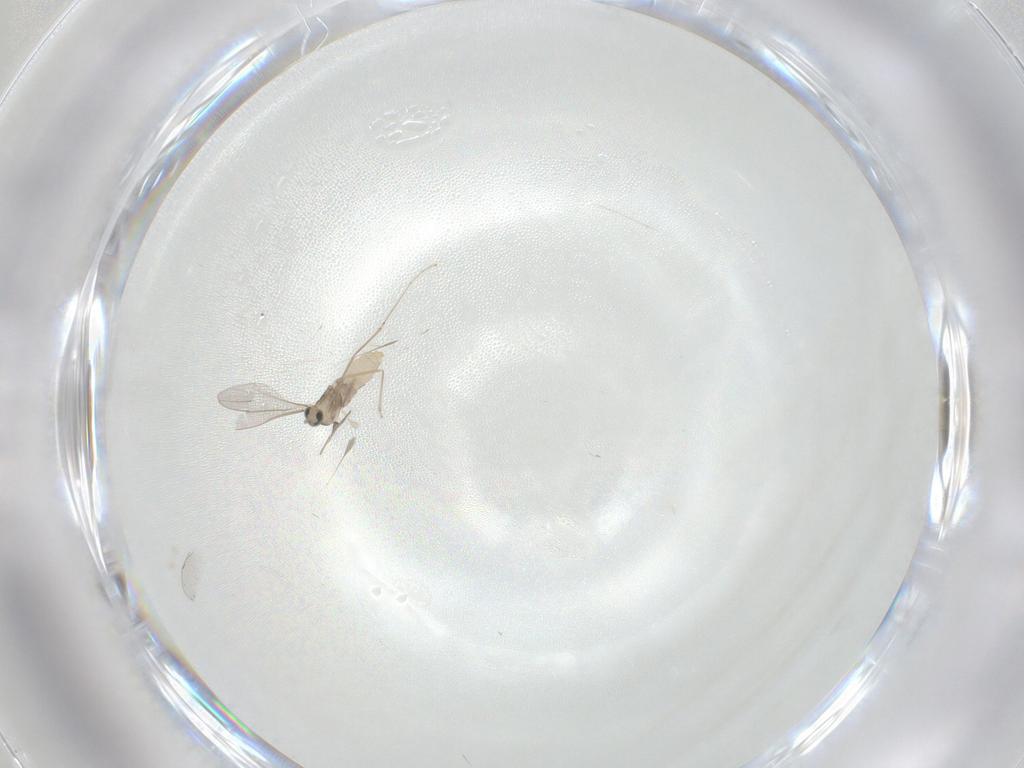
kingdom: Animalia
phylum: Arthropoda
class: Insecta
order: Diptera
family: Cecidomyiidae
